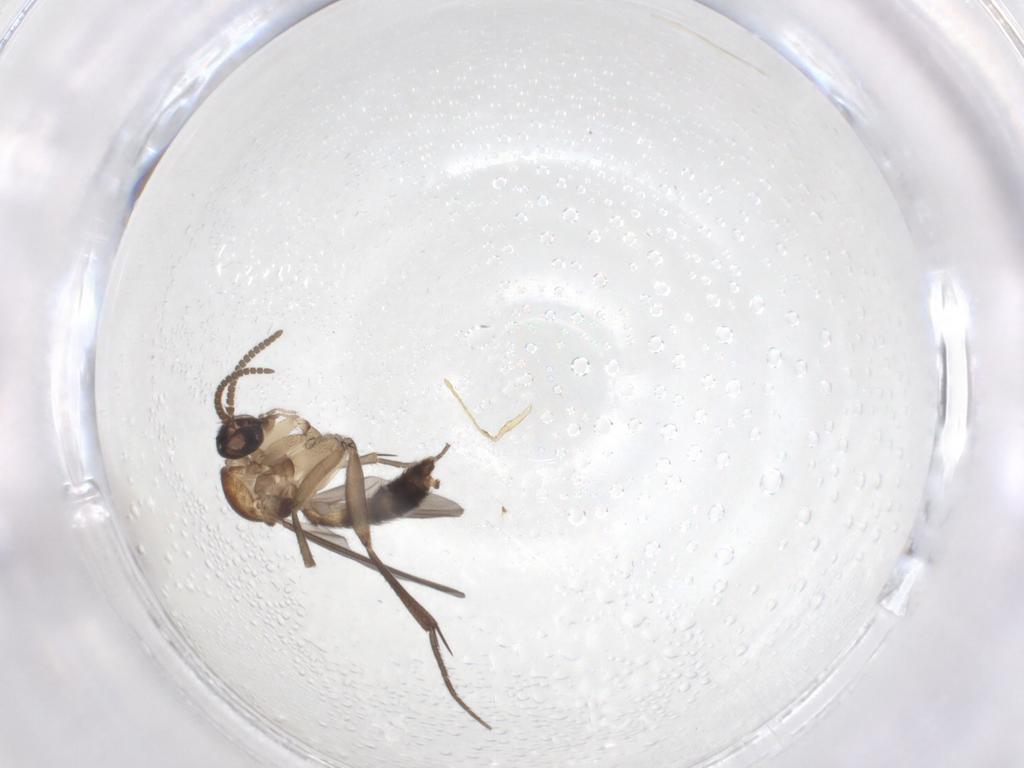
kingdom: Animalia
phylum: Arthropoda
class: Insecta
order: Diptera
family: Mycetophilidae
